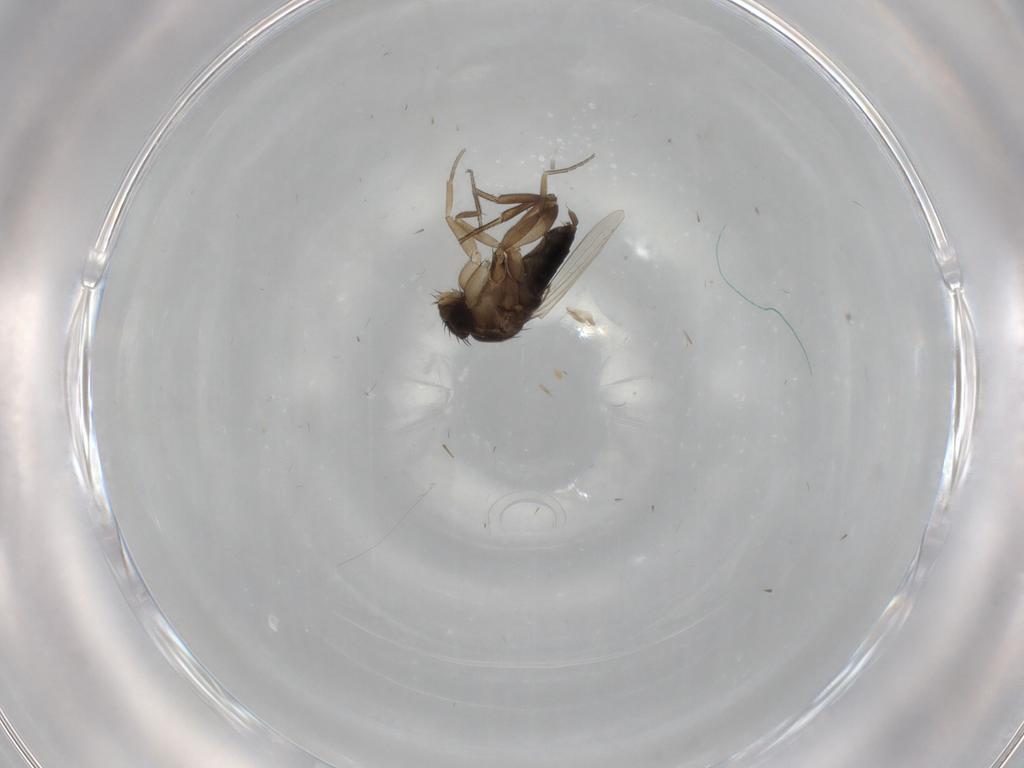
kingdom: Animalia
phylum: Arthropoda
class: Insecta
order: Diptera
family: Phoridae
